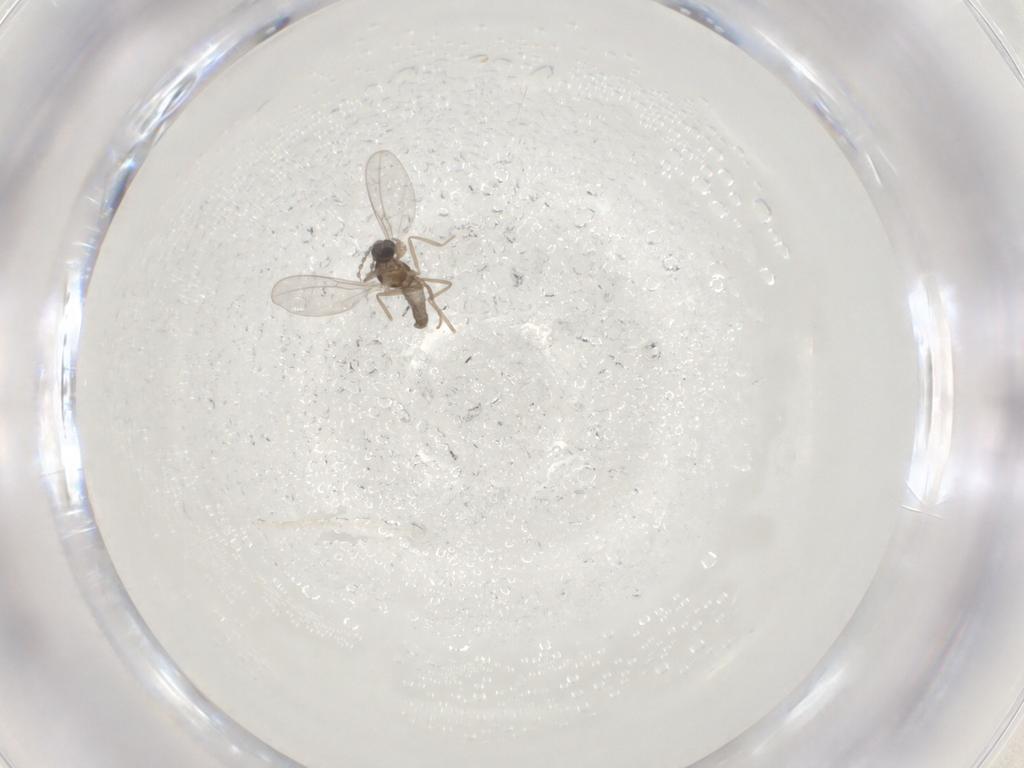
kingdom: Animalia
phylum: Arthropoda
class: Insecta
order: Diptera
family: Cecidomyiidae
